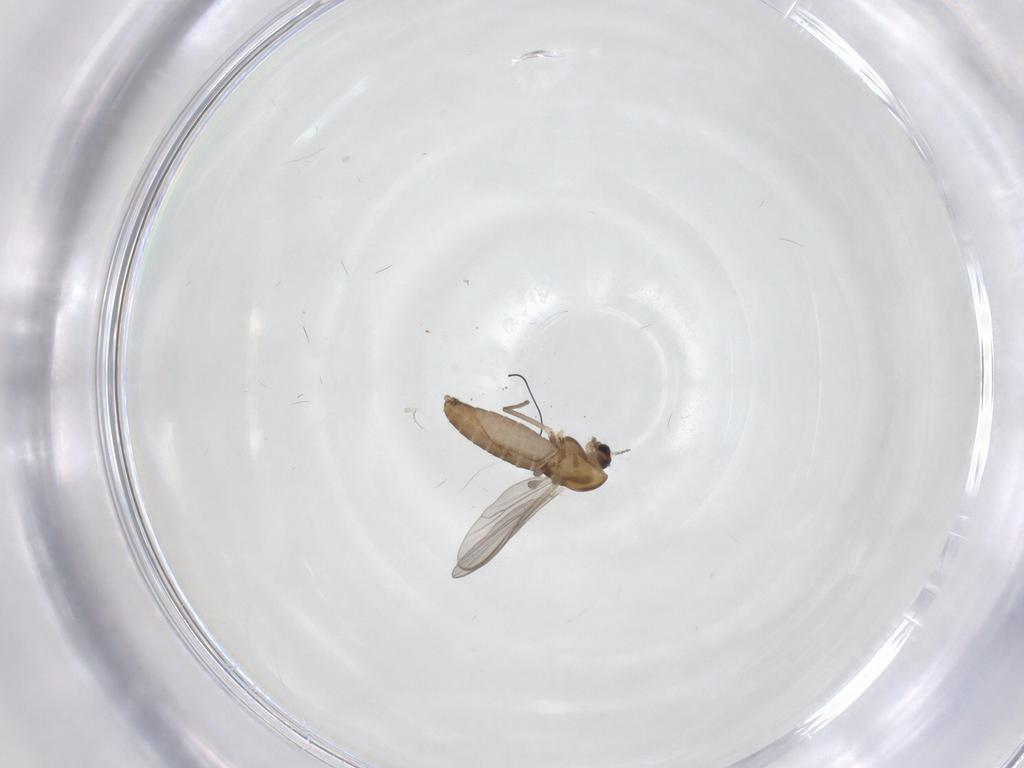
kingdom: Animalia
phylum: Arthropoda
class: Insecta
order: Diptera
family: Chironomidae
